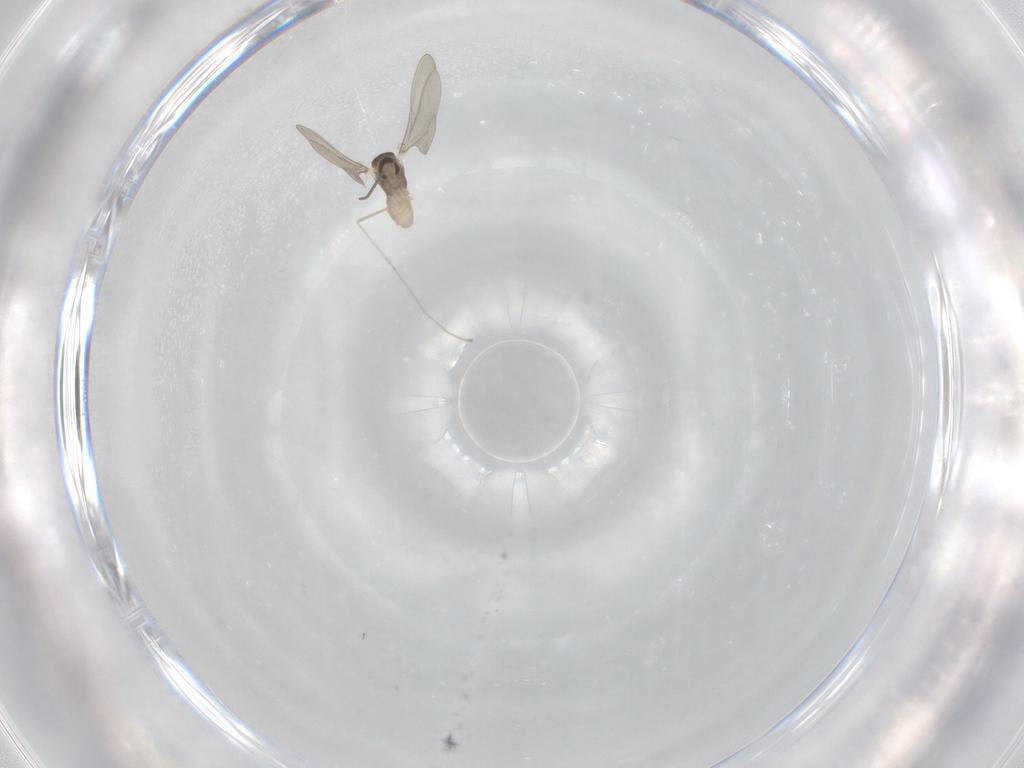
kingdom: Animalia
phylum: Arthropoda
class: Insecta
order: Diptera
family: Cecidomyiidae
